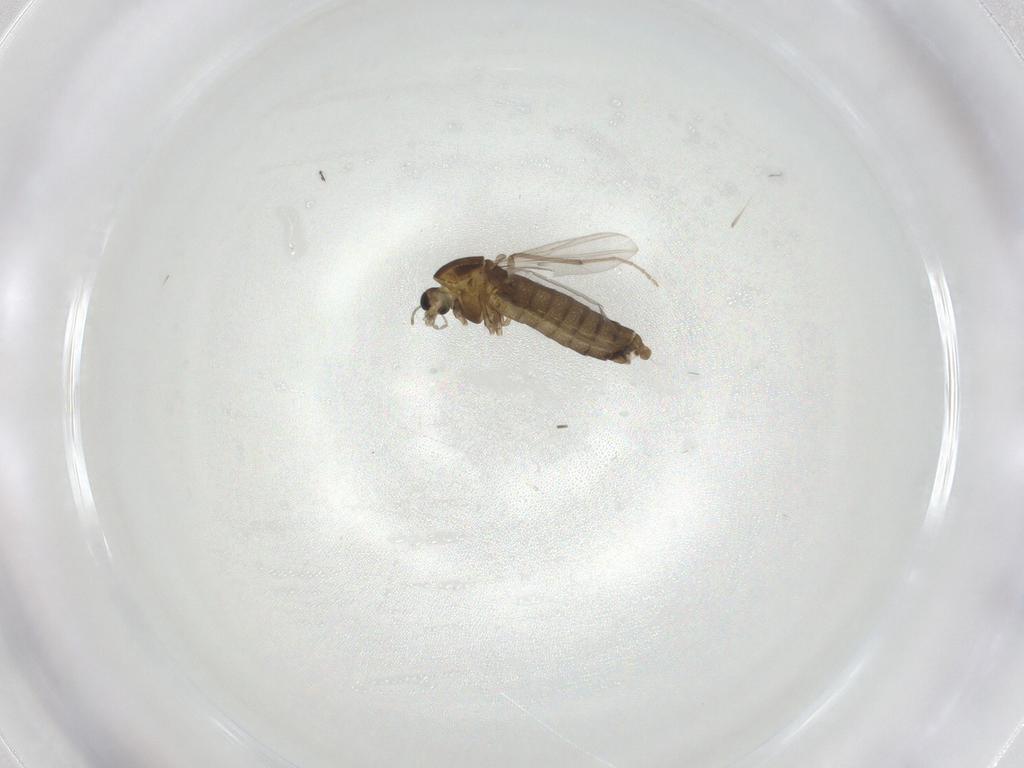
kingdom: Animalia
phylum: Arthropoda
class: Insecta
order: Diptera
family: Chironomidae
